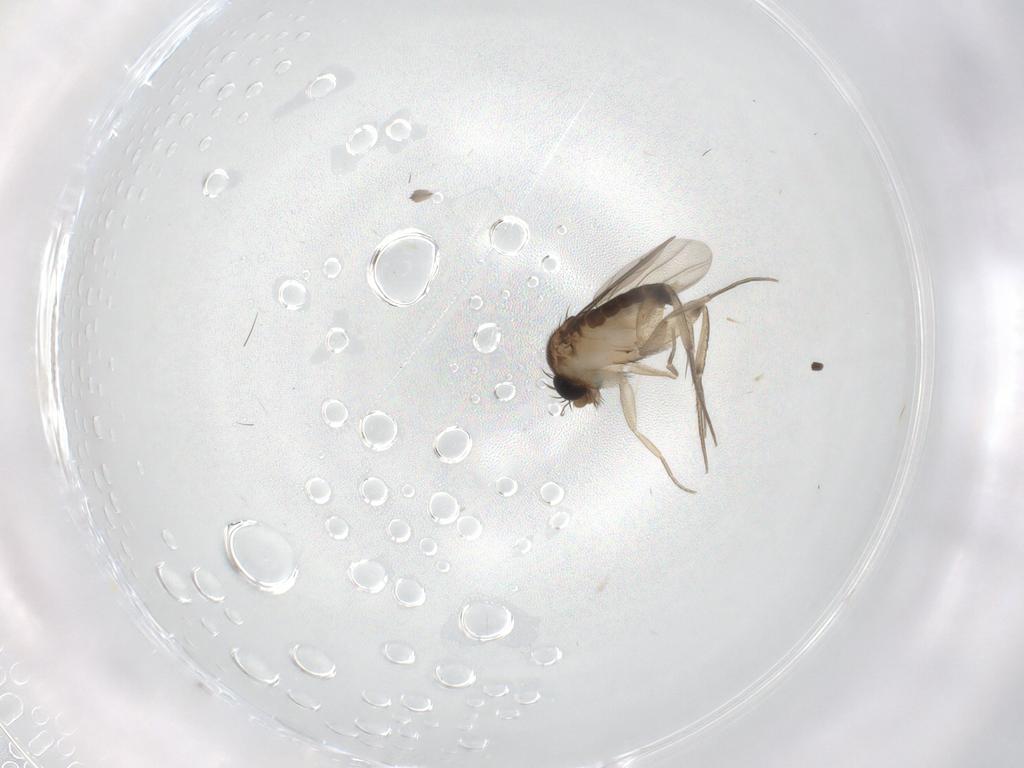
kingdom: Animalia
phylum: Arthropoda
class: Insecta
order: Diptera
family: Phoridae
